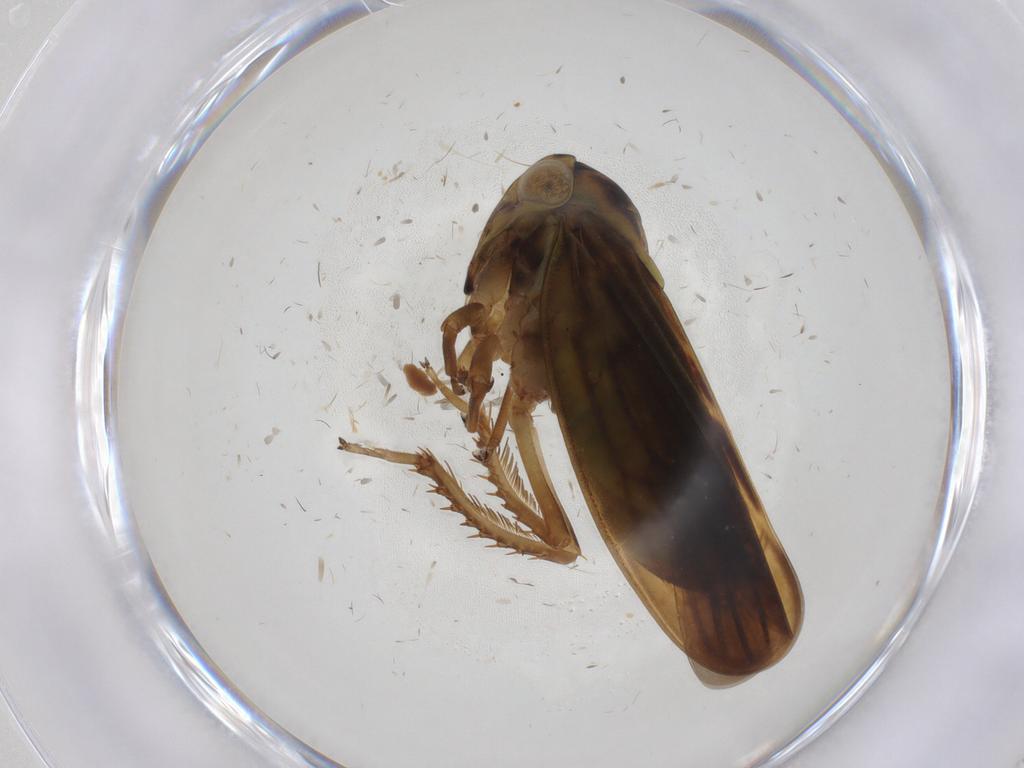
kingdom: Animalia
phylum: Arthropoda
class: Insecta
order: Hemiptera
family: Cicadellidae
